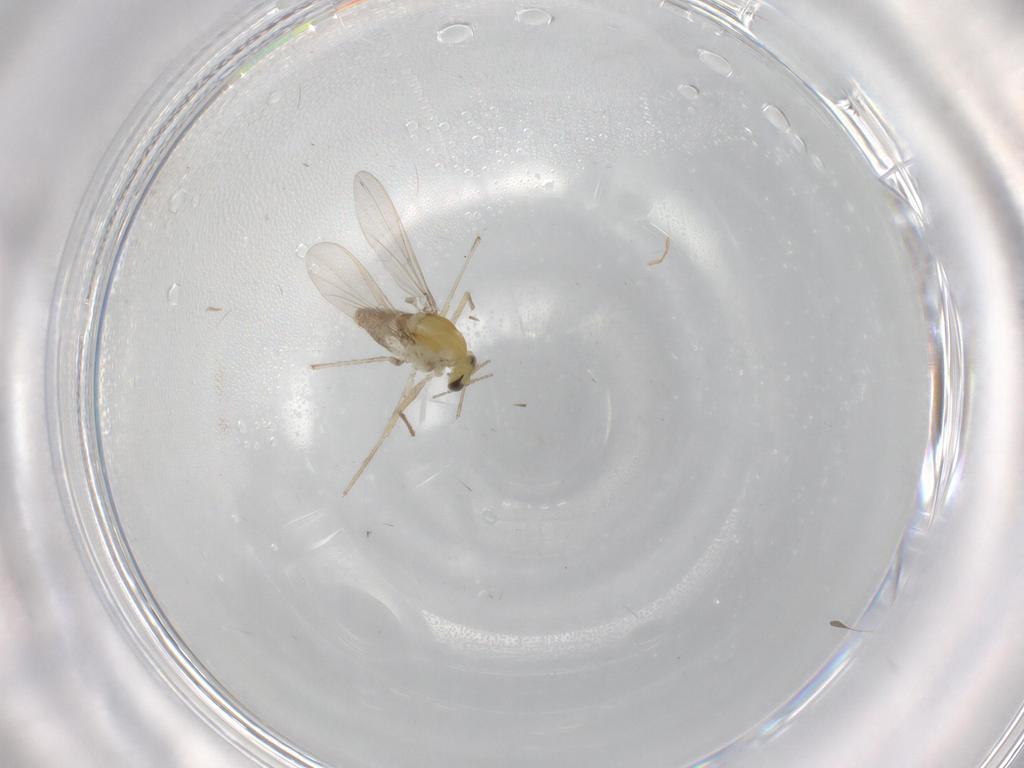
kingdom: Animalia
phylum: Arthropoda
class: Insecta
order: Diptera
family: Chironomidae
